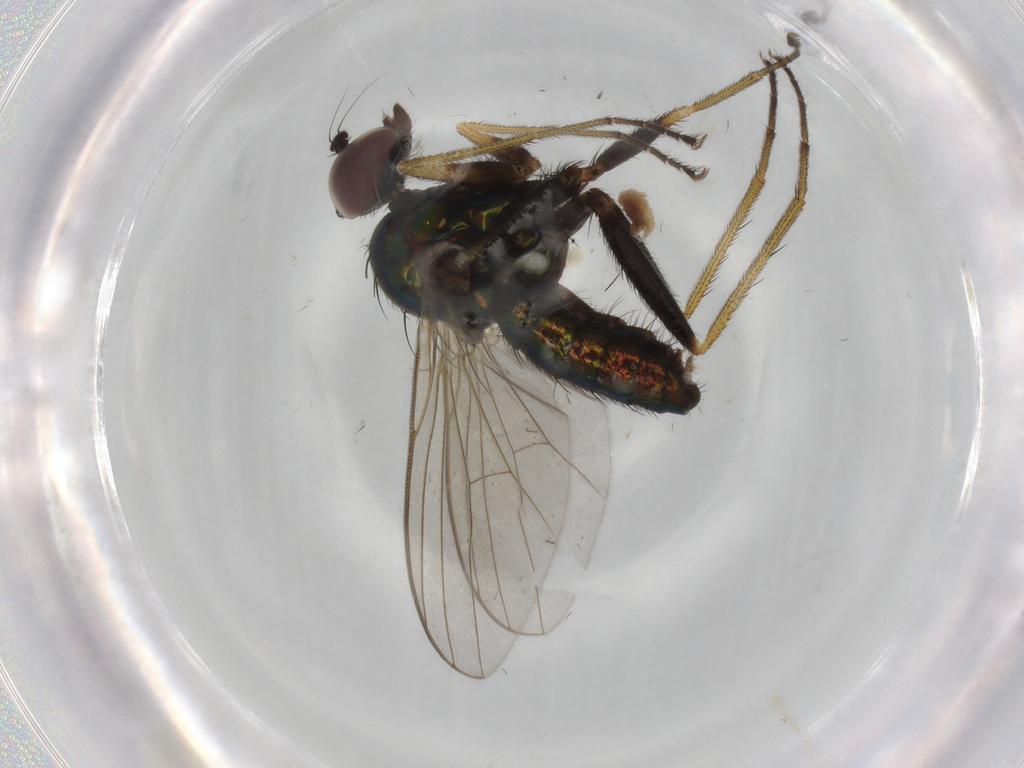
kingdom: Animalia
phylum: Arthropoda
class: Insecta
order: Diptera
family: Dolichopodidae
